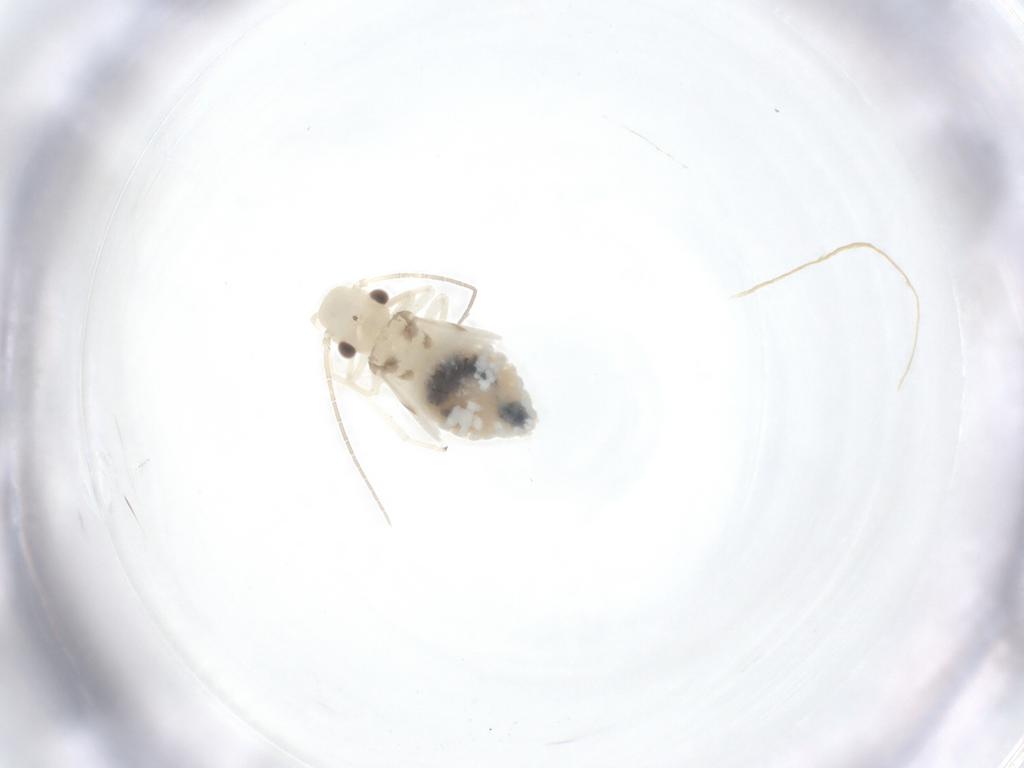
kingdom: Animalia
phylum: Arthropoda
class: Insecta
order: Psocodea
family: Caeciliusidae
